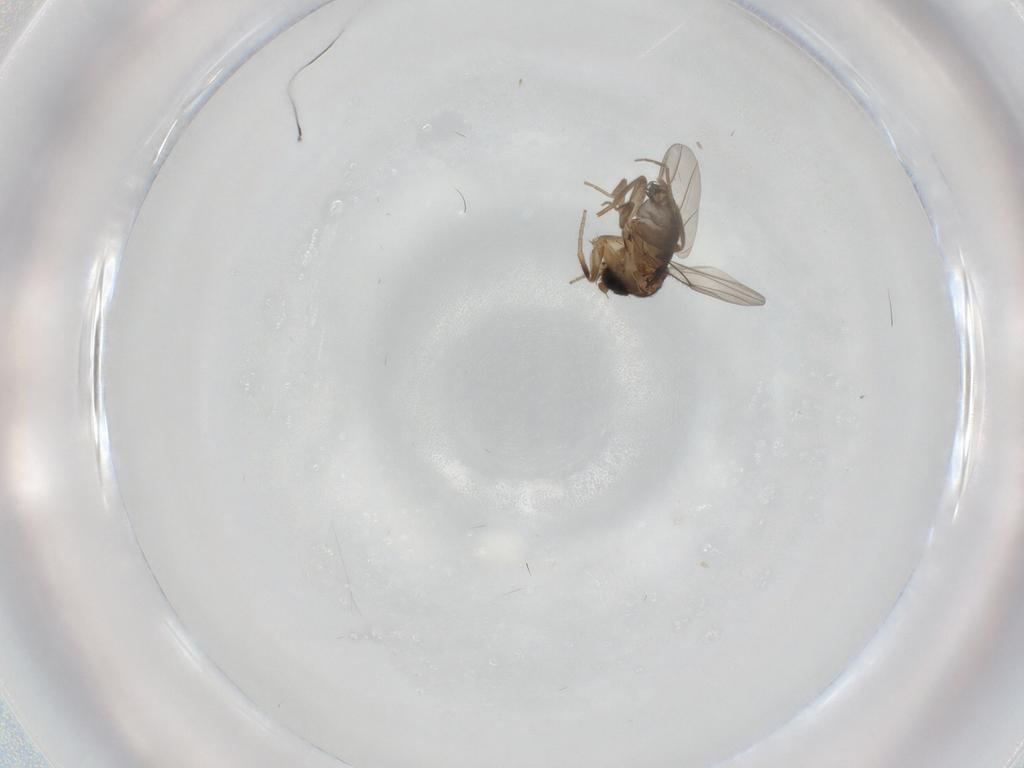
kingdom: Animalia
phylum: Arthropoda
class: Insecta
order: Diptera
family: Phoridae
